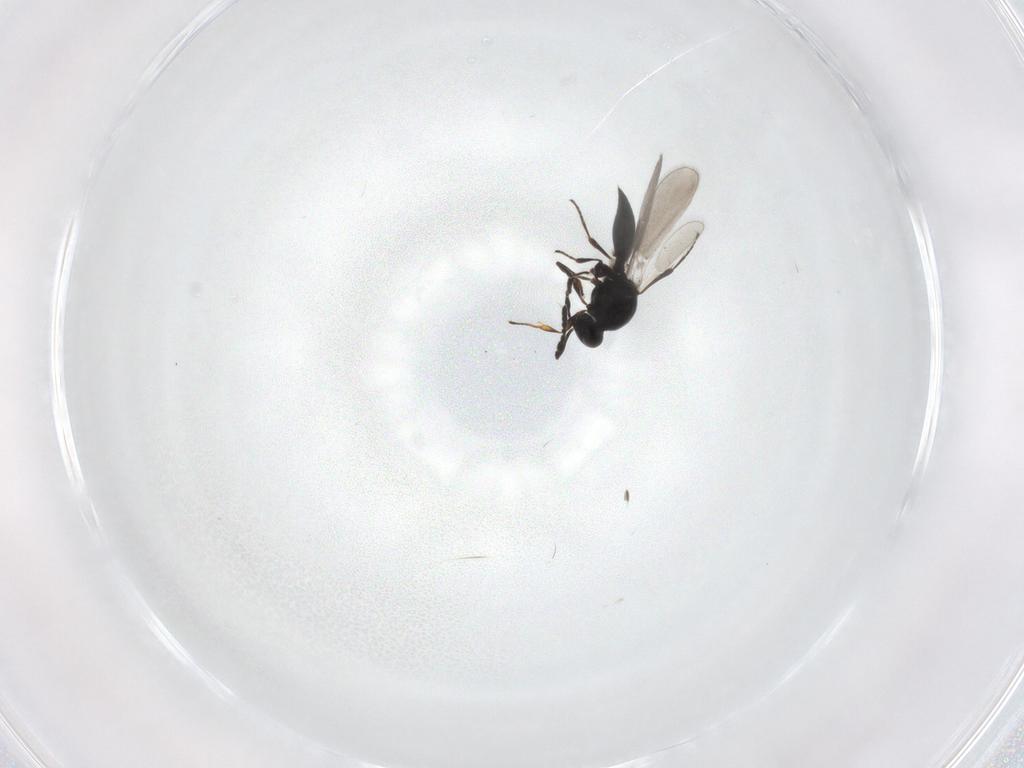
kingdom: Animalia
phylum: Arthropoda
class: Insecta
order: Hymenoptera
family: Platygastridae
